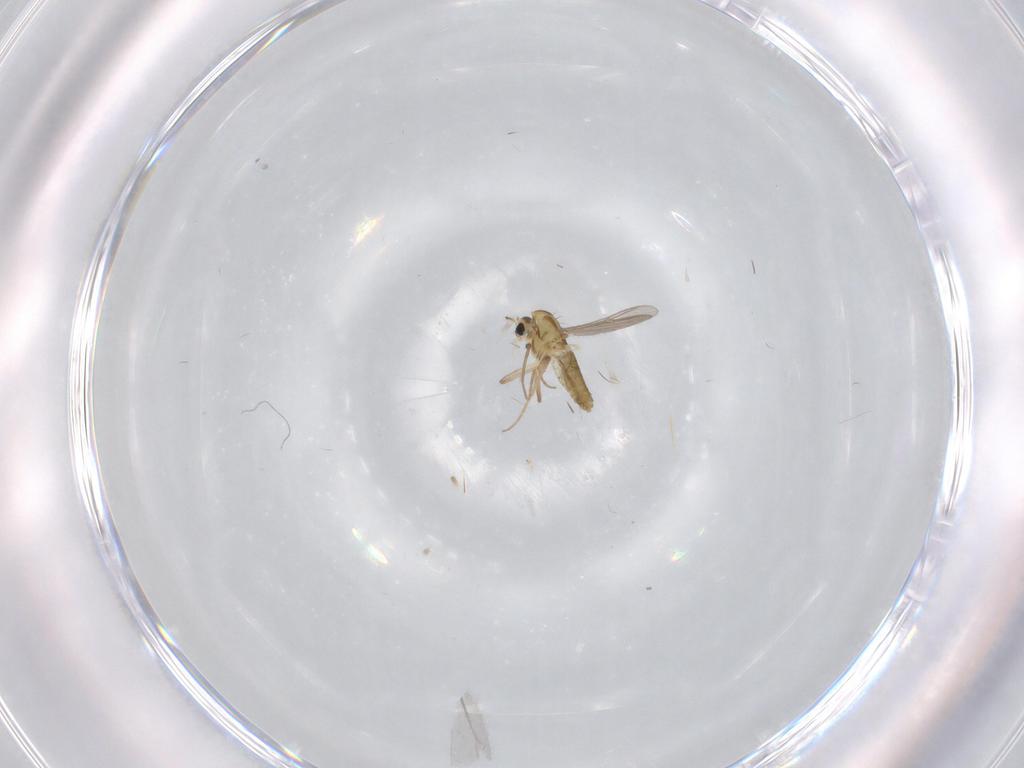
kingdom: Animalia
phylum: Arthropoda
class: Insecta
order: Diptera
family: Chironomidae
